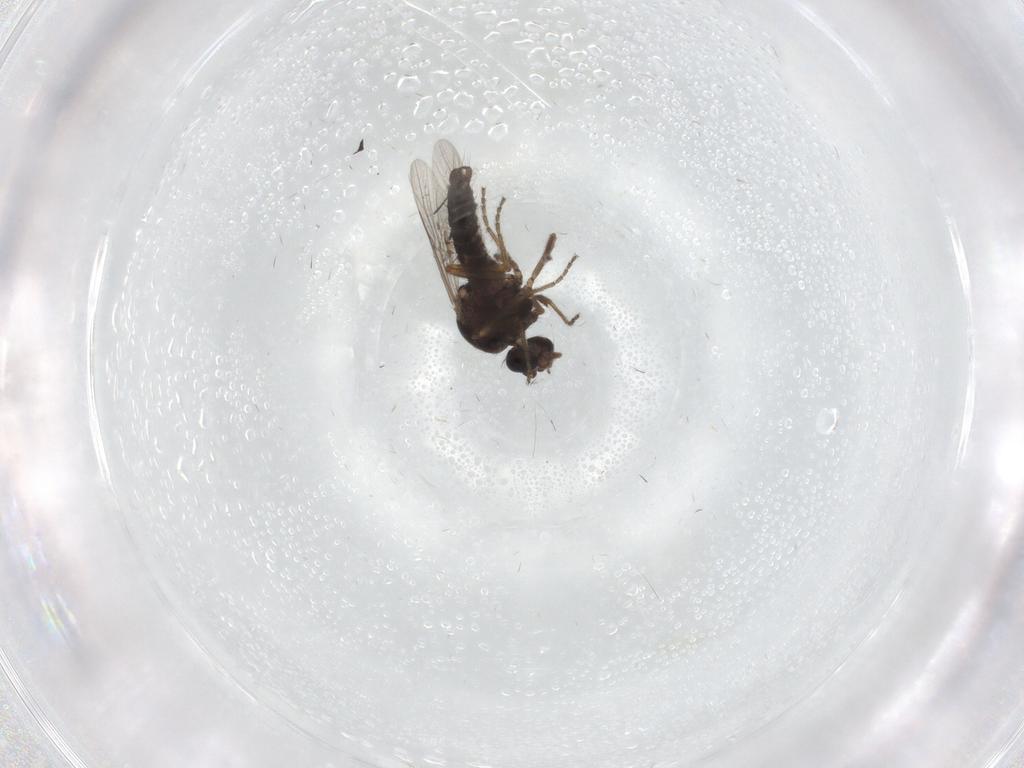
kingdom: Animalia
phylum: Arthropoda
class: Insecta
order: Diptera
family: Ceratopogonidae
